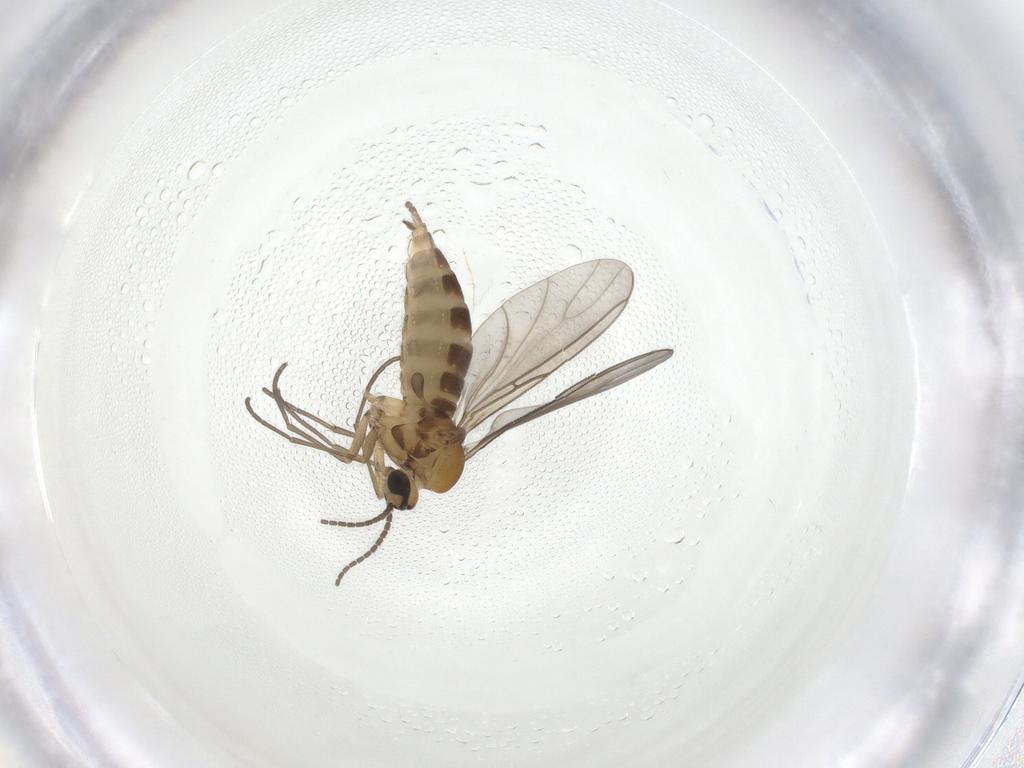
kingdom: Animalia
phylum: Arthropoda
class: Insecta
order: Diptera
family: Sciaridae
